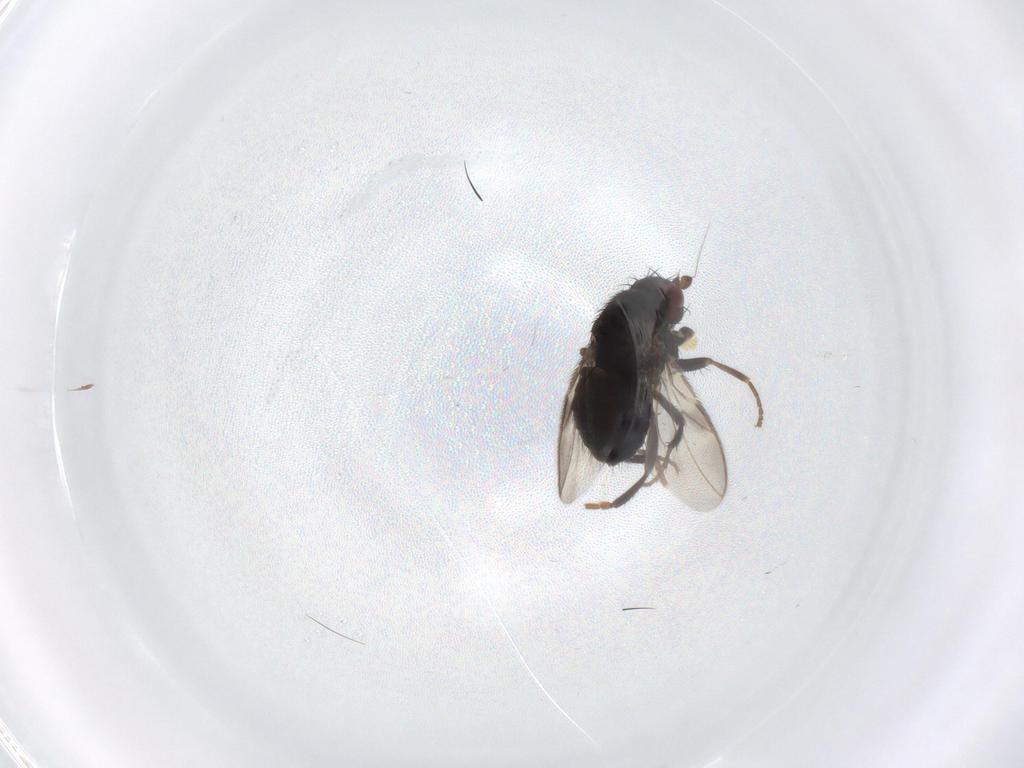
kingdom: Animalia
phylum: Arthropoda
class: Insecta
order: Diptera
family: Sphaeroceridae
